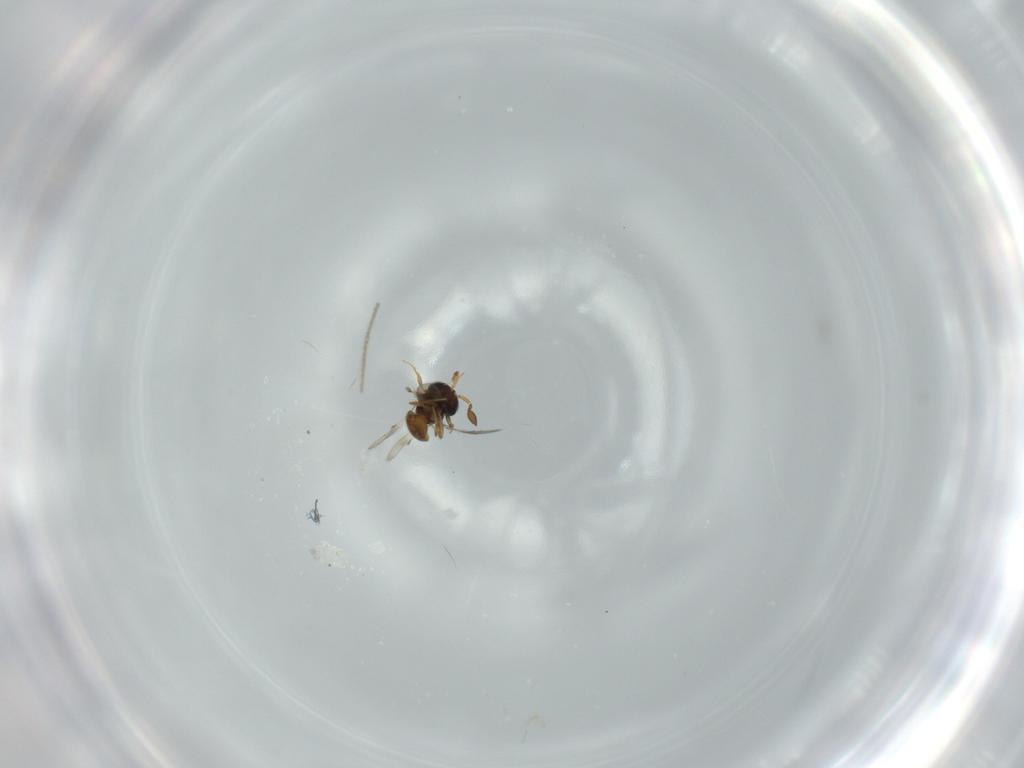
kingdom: Animalia
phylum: Arthropoda
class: Insecta
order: Hymenoptera
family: Scelionidae
